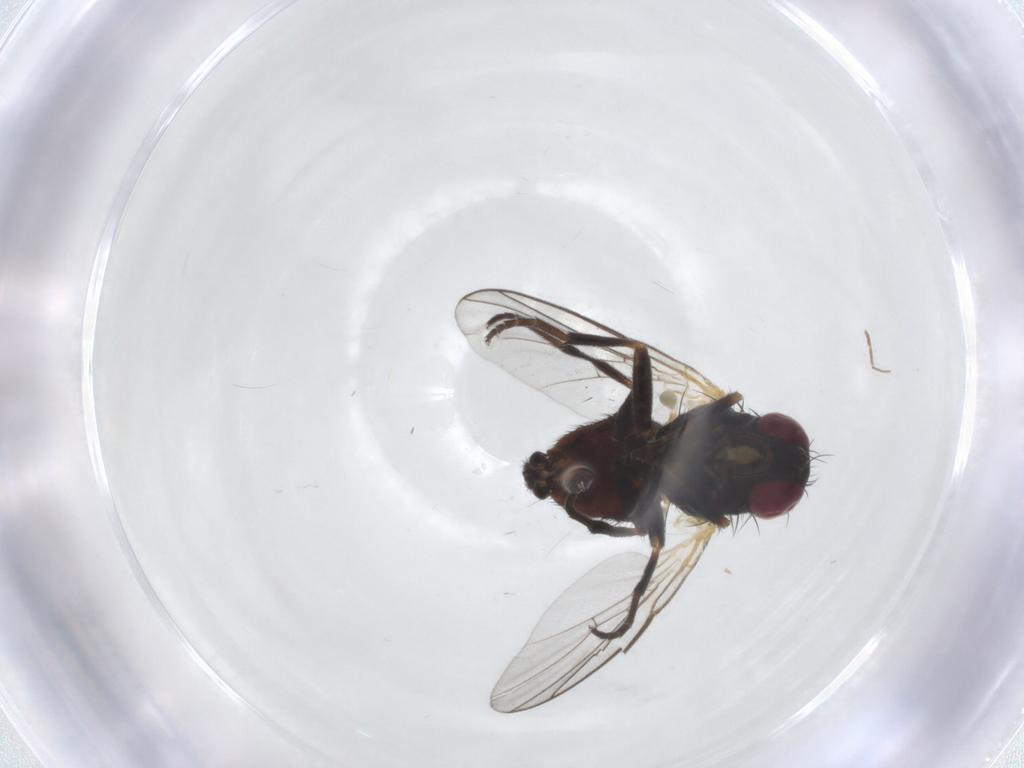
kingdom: Animalia
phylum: Arthropoda
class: Insecta
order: Diptera
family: Agromyzidae
